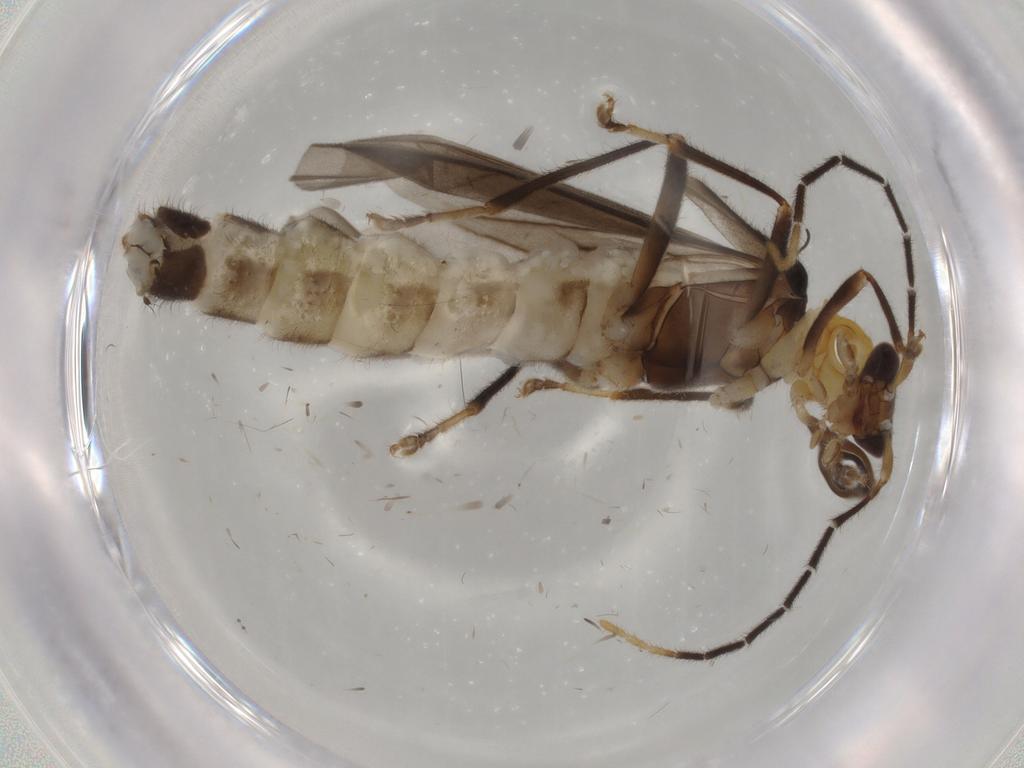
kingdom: Animalia
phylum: Arthropoda
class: Insecta
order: Coleoptera
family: Cantharidae
